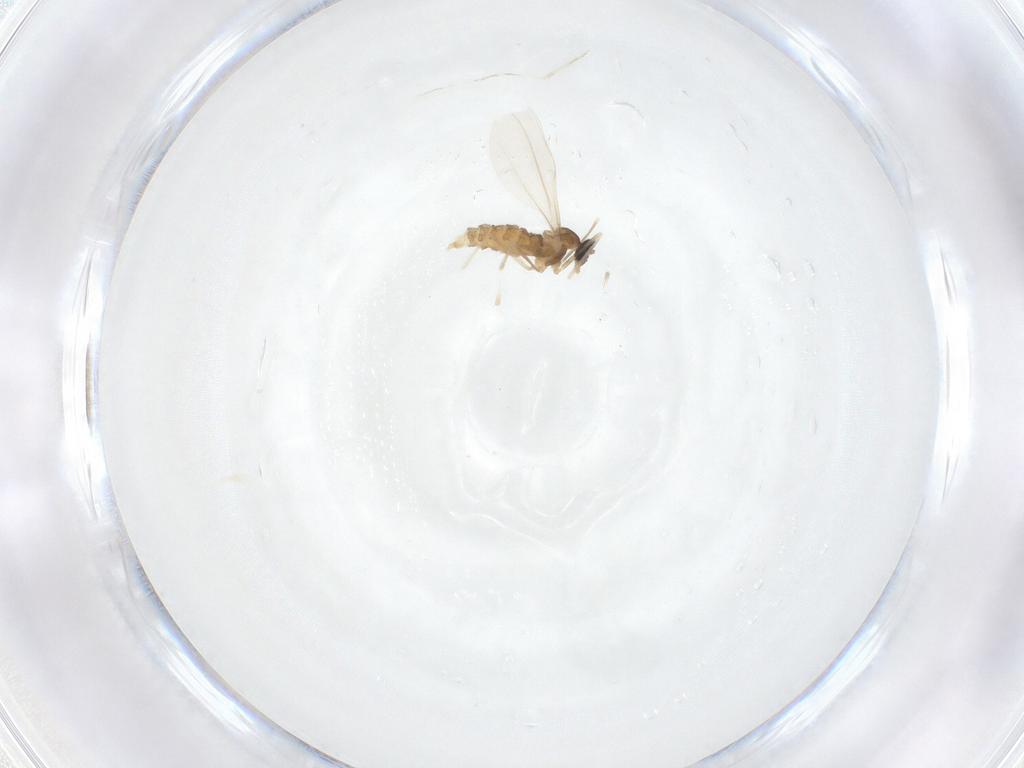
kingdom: Animalia
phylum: Arthropoda
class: Insecta
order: Diptera
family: Cecidomyiidae
